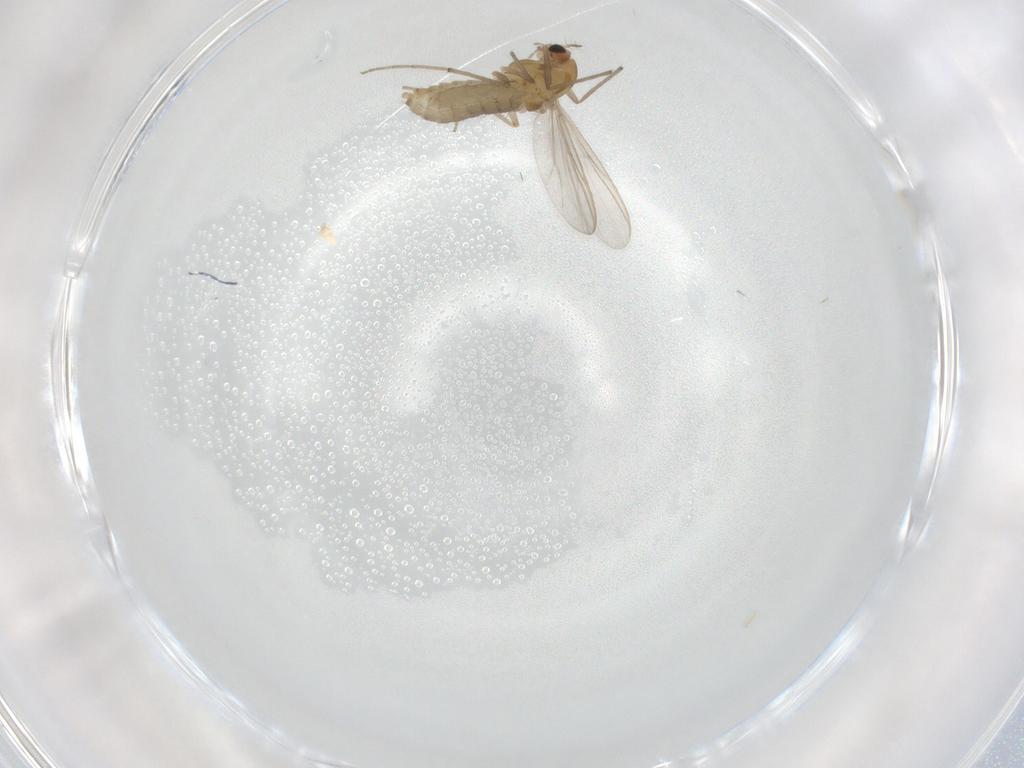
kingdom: Animalia
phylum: Arthropoda
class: Insecta
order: Diptera
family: Chironomidae
